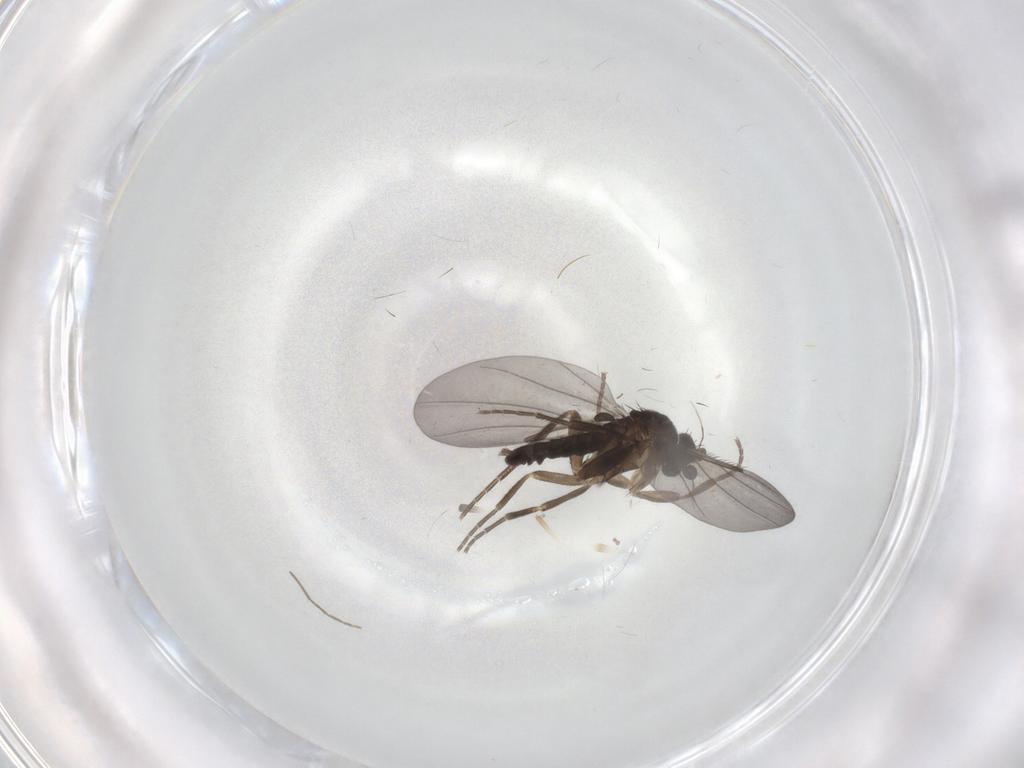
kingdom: Animalia
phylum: Arthropoda
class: Insecta
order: Diptera
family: Phoridae
